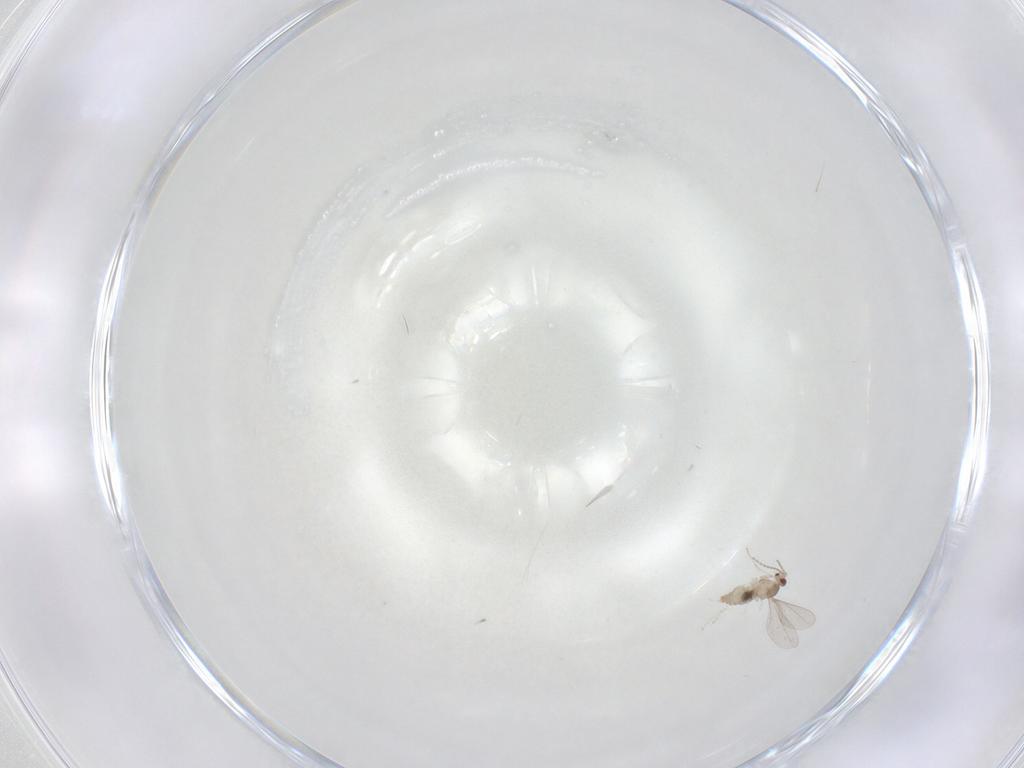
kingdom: Animalia
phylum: Arthropoda
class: Insecta
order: Diptera
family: Cecidomyiidae
